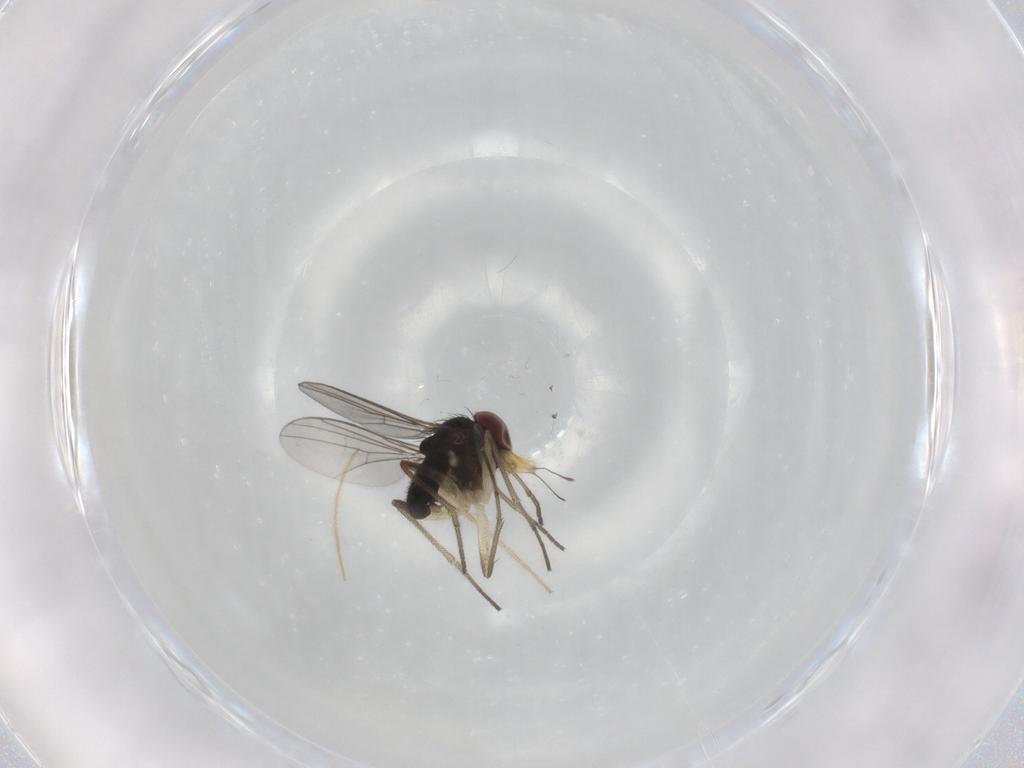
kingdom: Animalia
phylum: Arthropoda
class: Insecta
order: Diptera
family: Dolichopodidae
